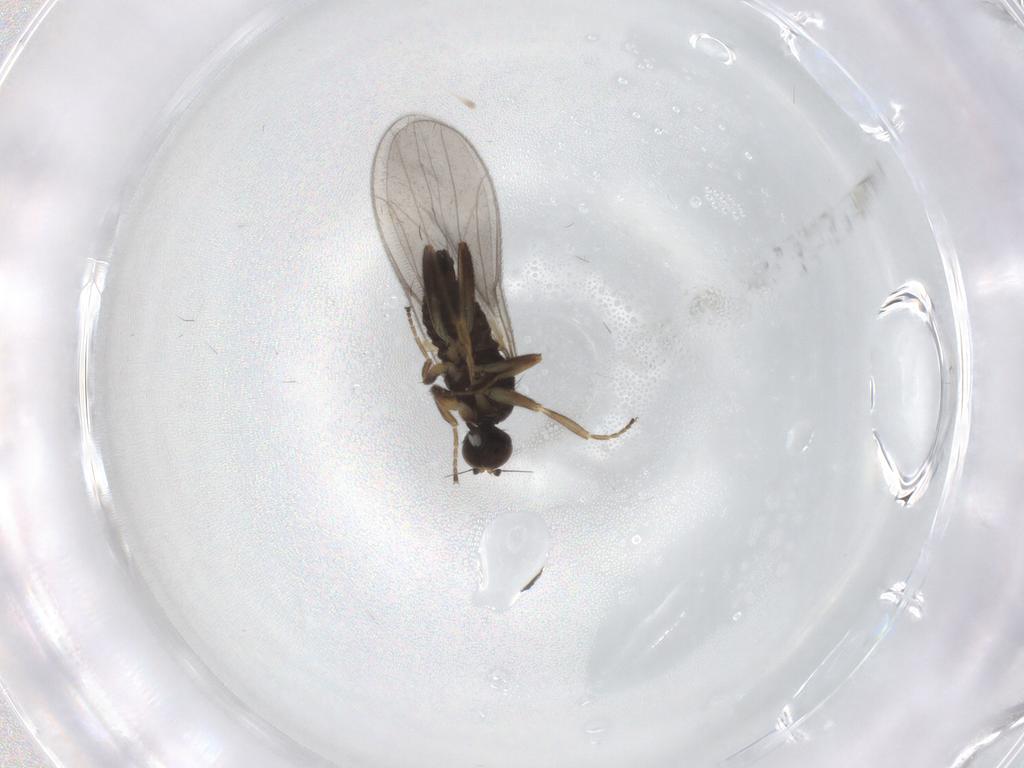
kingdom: Animalia
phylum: Arthropoda
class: Insecta
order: Diptera
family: Hybotidae
